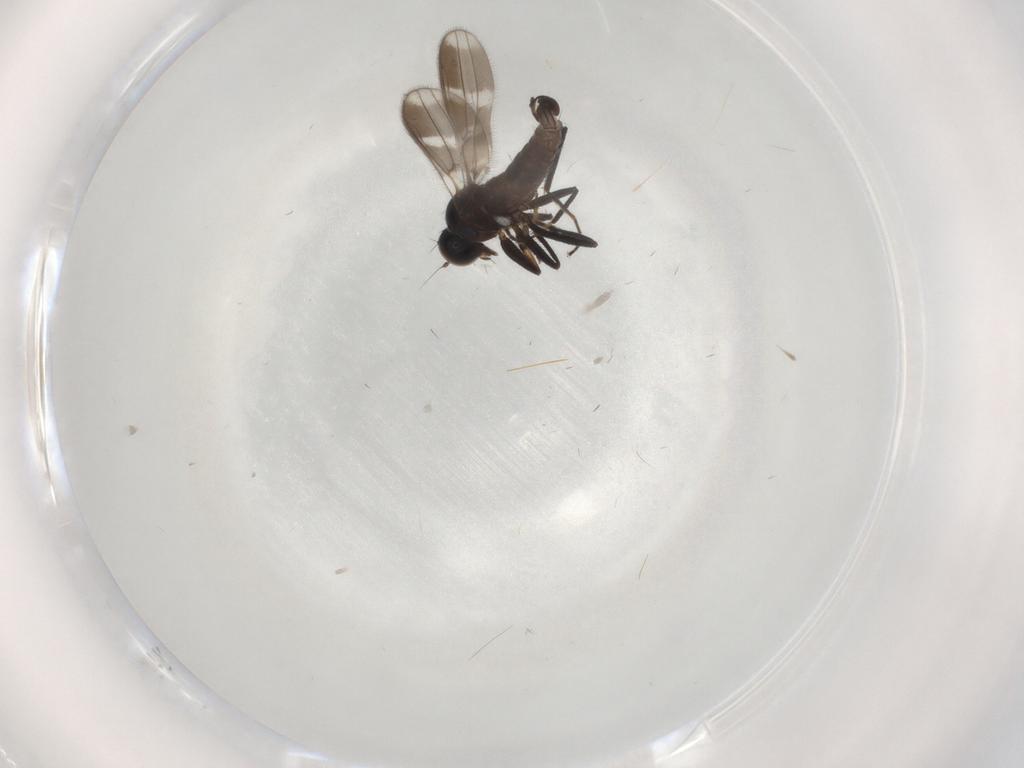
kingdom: Animalia
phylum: Arthropoda
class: Insecta
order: Diptera
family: Hybotidae
